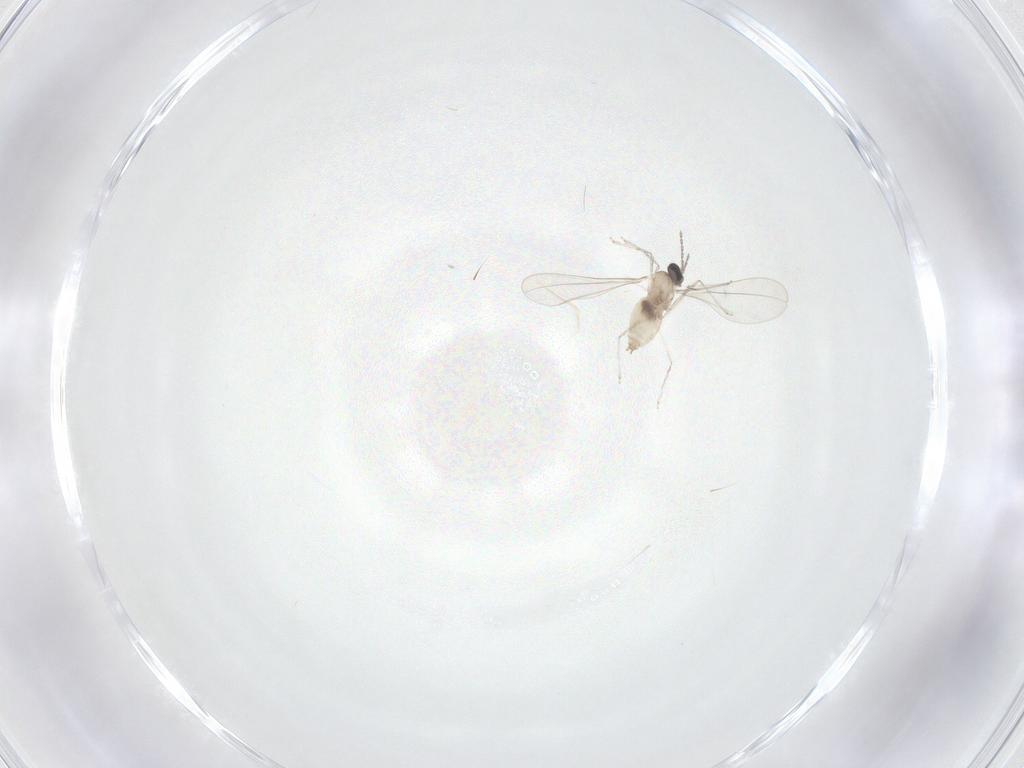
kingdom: Animalia
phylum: Arthropoda
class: Insecta
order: Diptera
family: Cecidomyiidae
